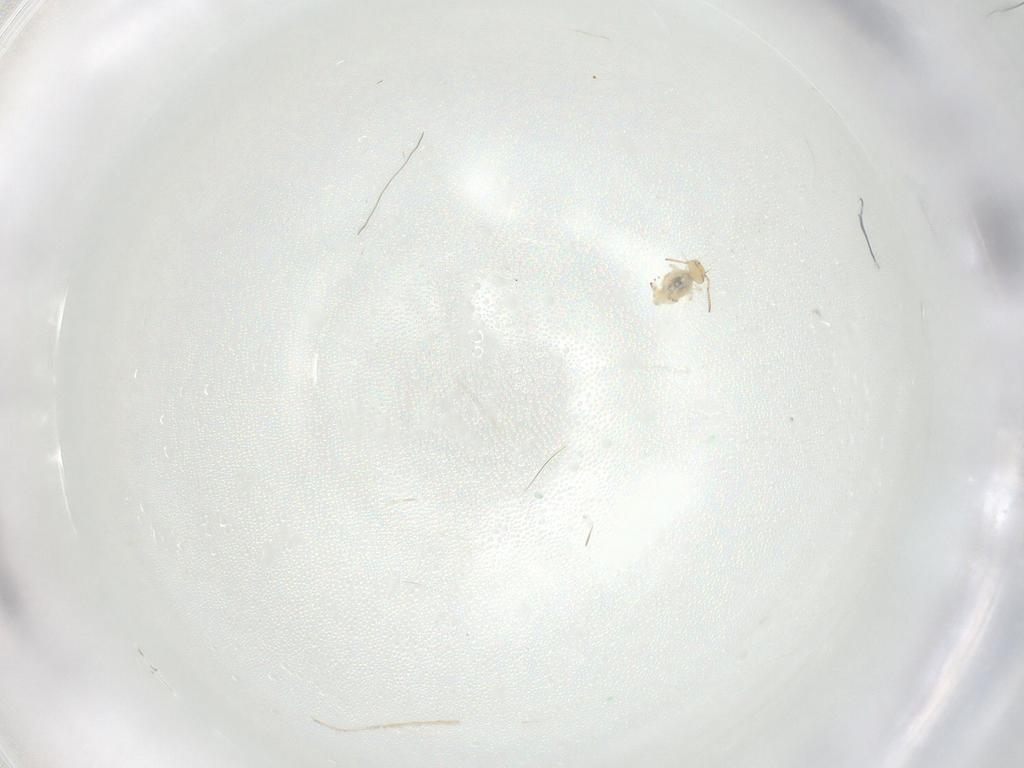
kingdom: Animalia
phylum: Arthropoda
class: Collembola
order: Symphypleona
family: Bourletiellidae
